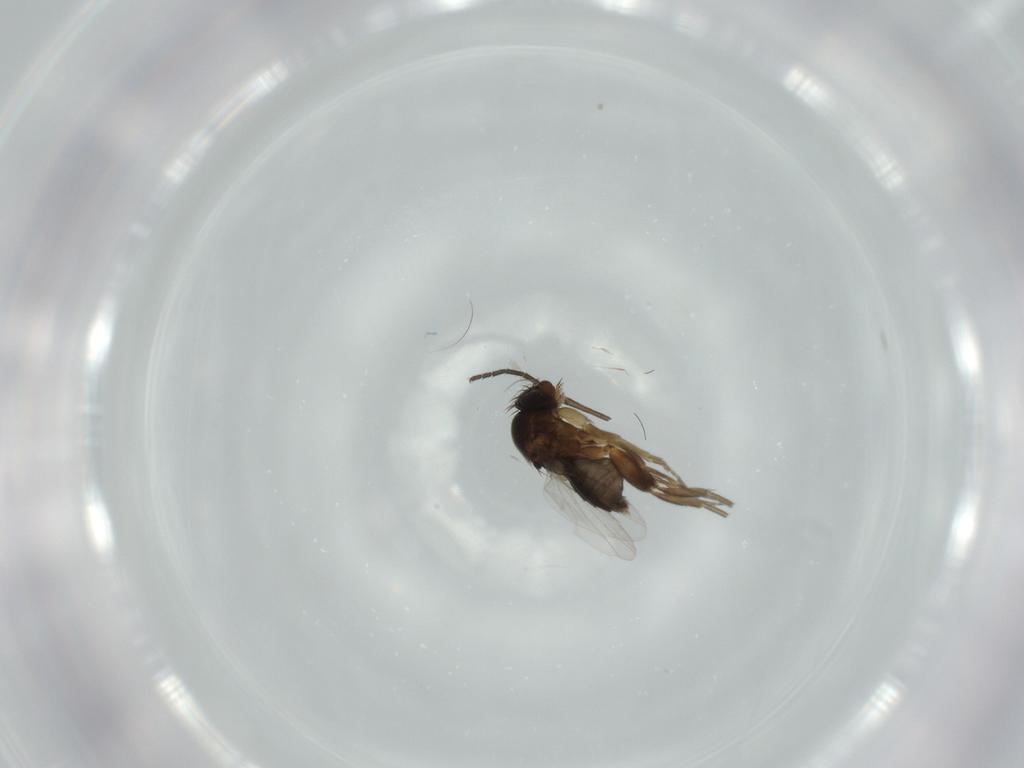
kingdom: Animalia
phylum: Arthropoda
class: Insecta
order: Diptera
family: Phoridae
